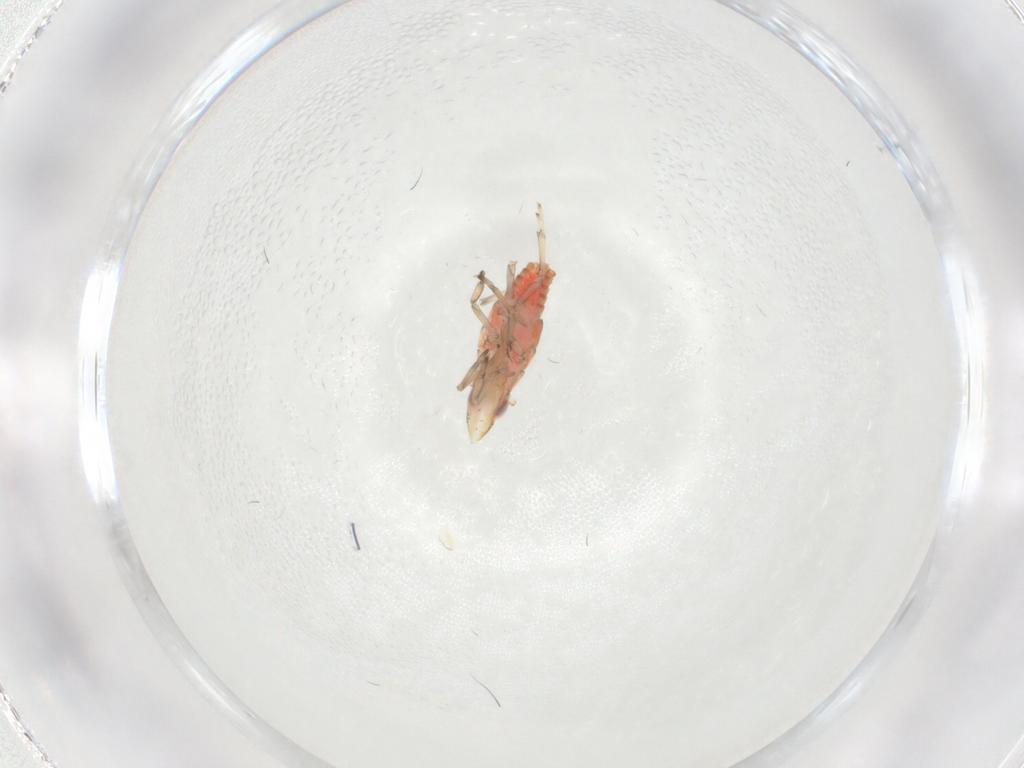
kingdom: Animalia
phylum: Arthropoda
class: Insecta
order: Hemiptera
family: Eurybrachidae
